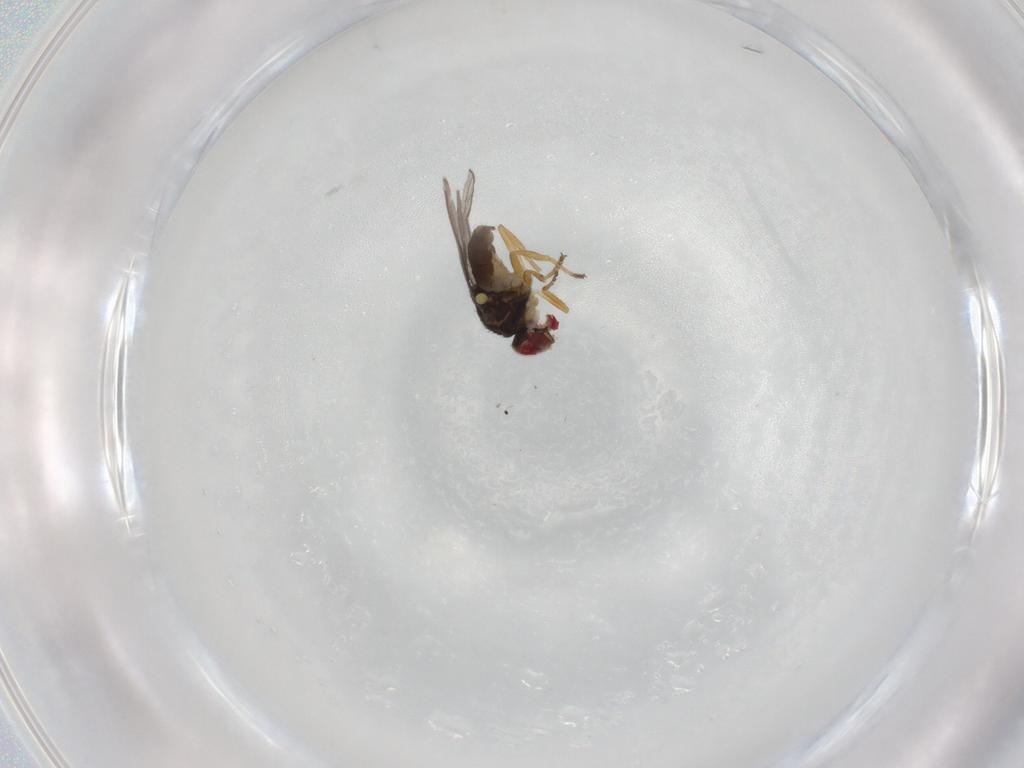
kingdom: Animalia
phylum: Arthropoda
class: Insecta
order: Diptera
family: Chloropidae
